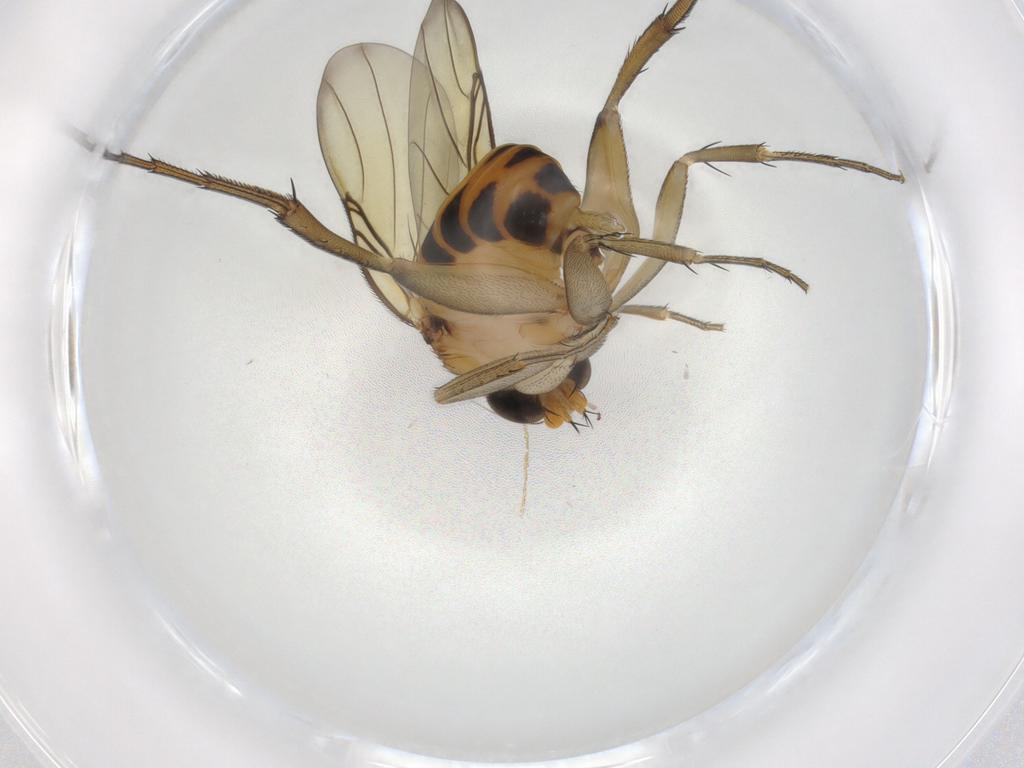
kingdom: Animalia
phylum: Arthropoda
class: Insecta
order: Diptera
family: Phoridae
